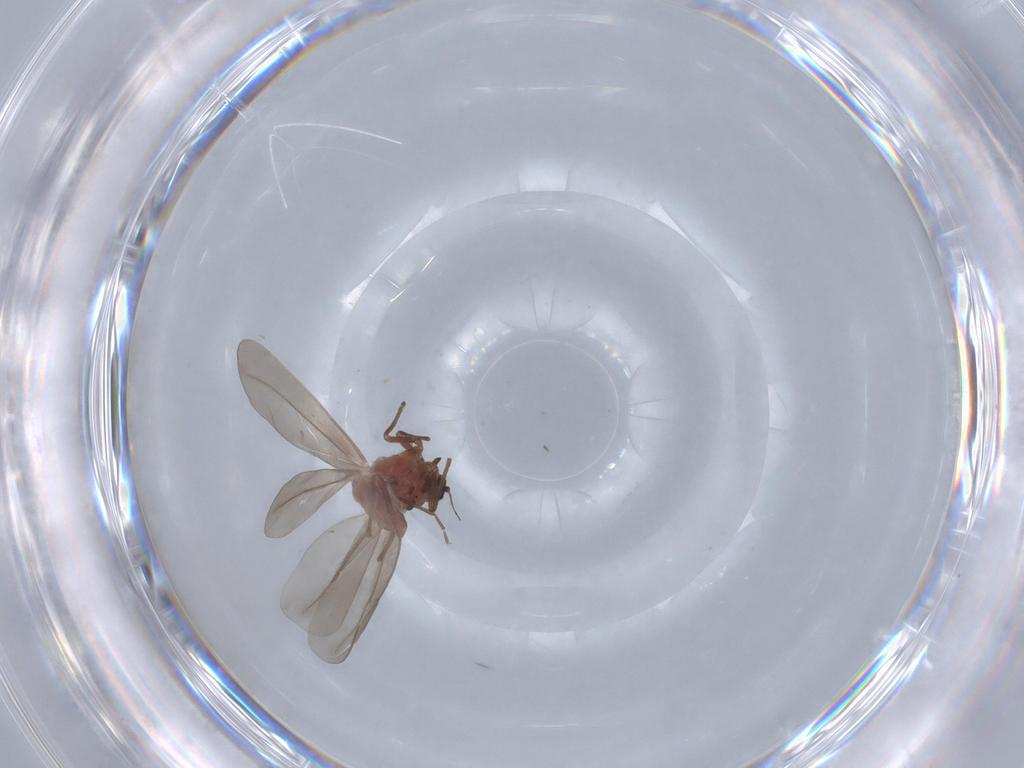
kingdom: Animalia
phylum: Arthropoda
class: Insecta
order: Hemiptera
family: Aleyrodidae
